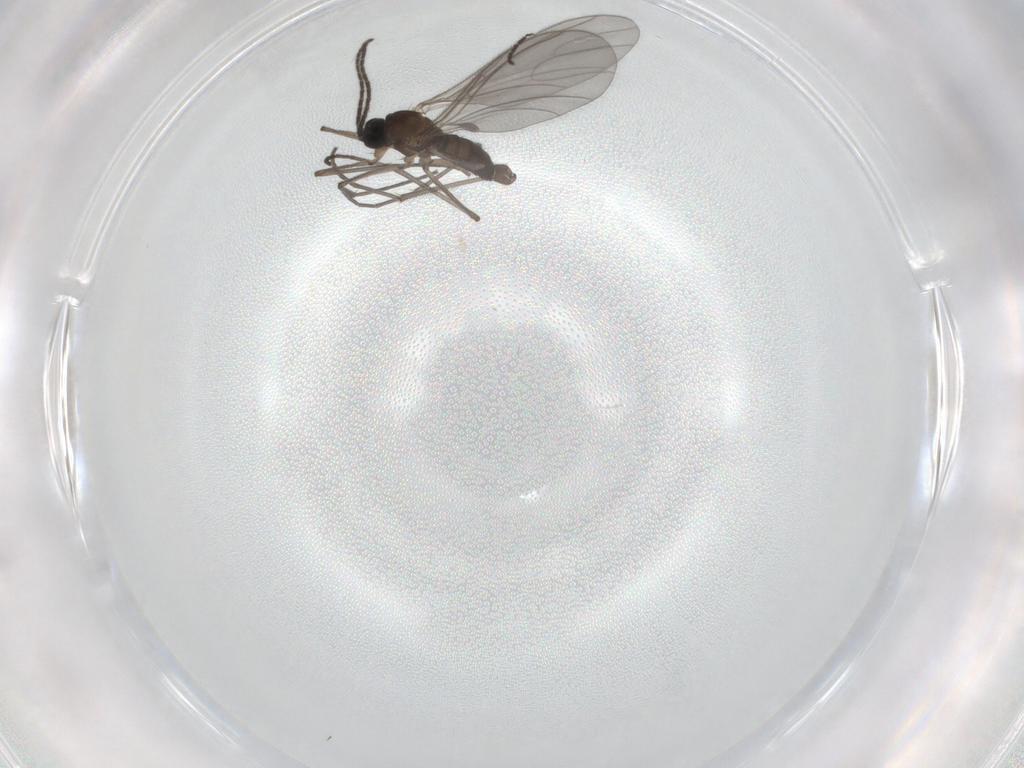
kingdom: Animalia
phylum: Arthropoda
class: Insecta
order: Diptera
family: Sciaridae
